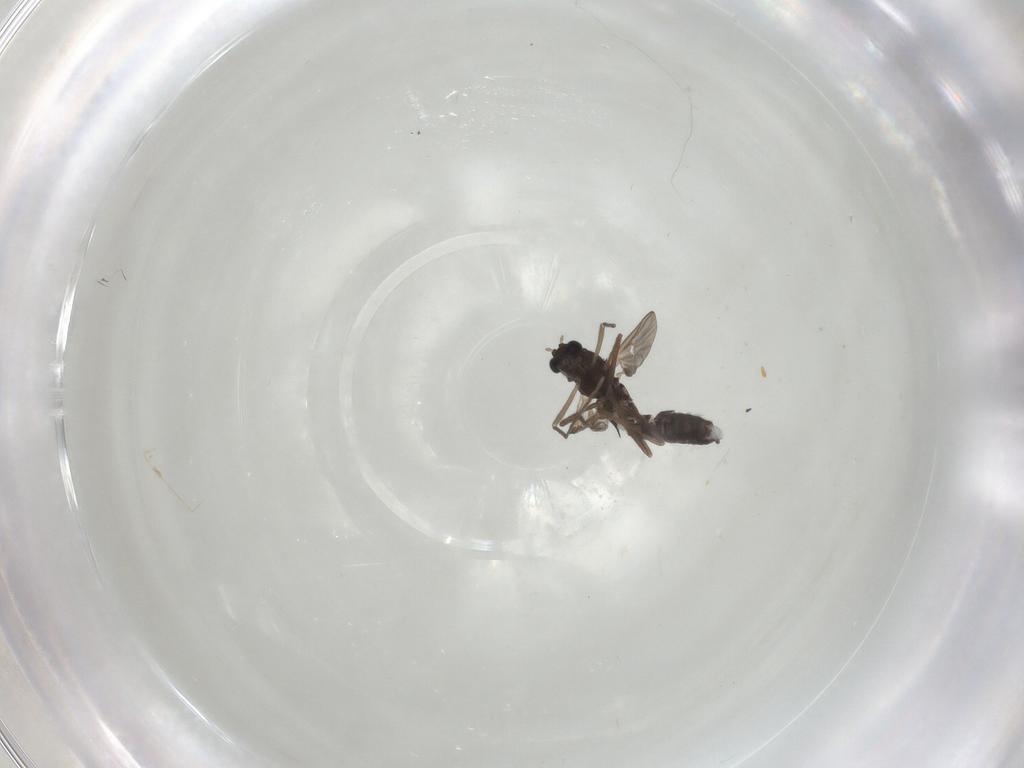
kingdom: Animalia
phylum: Arthropoda
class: Insecta
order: Diptera
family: Chironomidae
